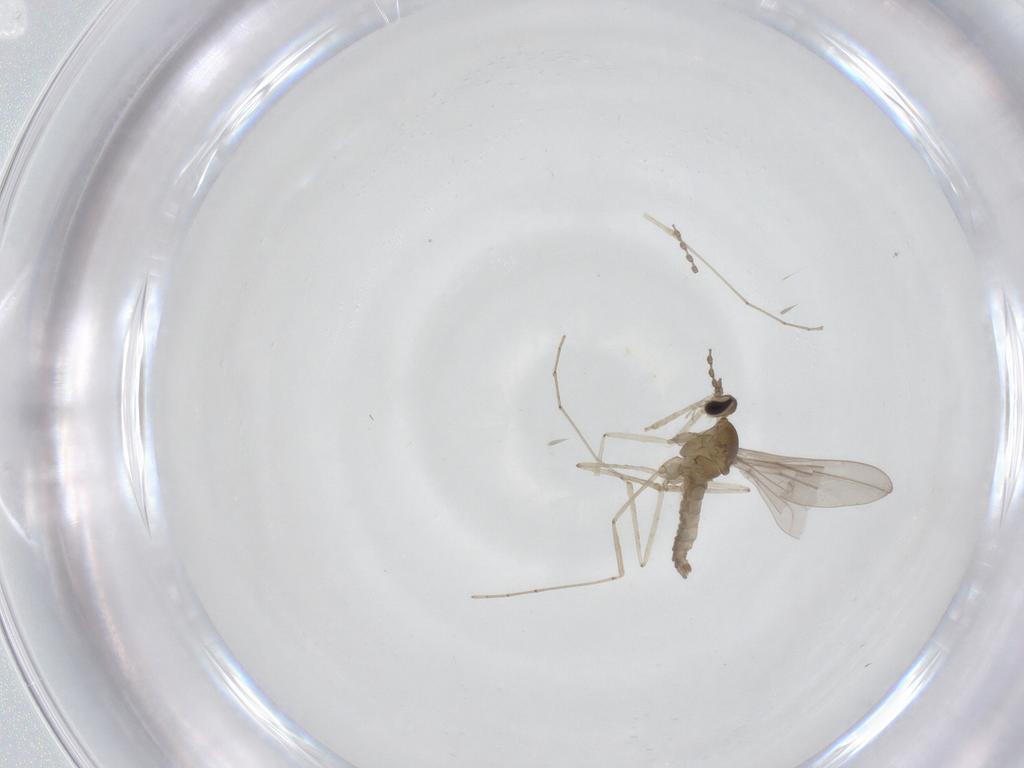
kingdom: Animalia
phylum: Arthropoda
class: Insecta
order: Diptera
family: Cecidomyiidae
